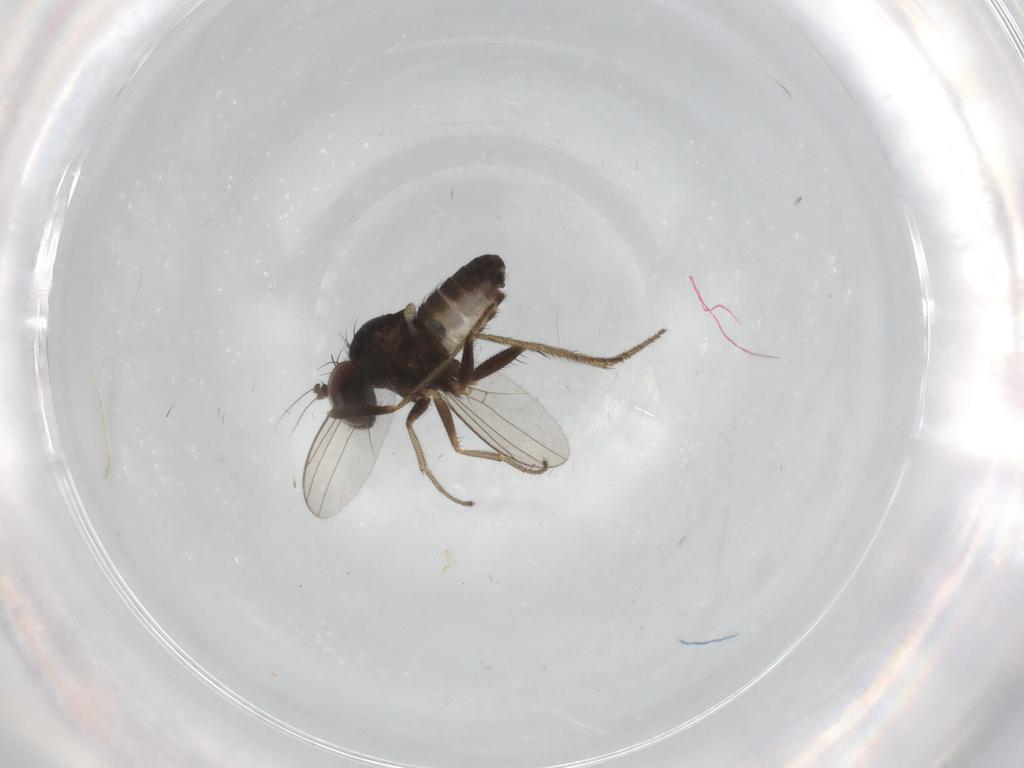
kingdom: Animalia
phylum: Arthropoda
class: Insecta
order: Diptera
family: Dolichopodidae
